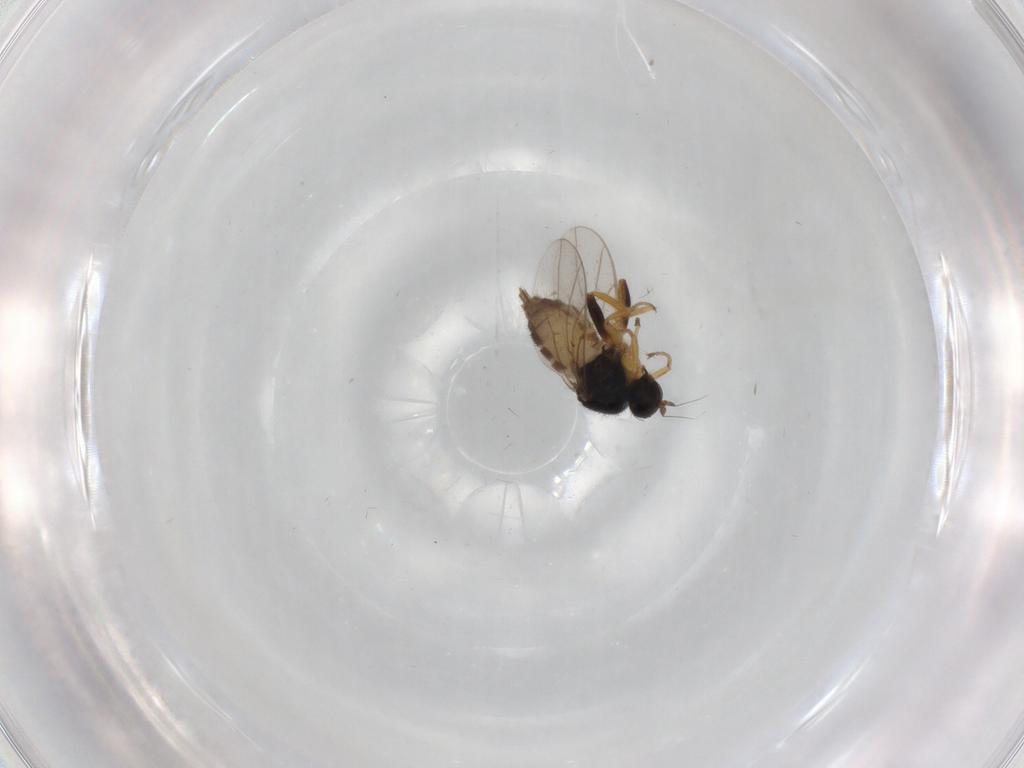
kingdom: Animalia
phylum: Arthropoda
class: Insecta
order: Diptera
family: Hybotidae
